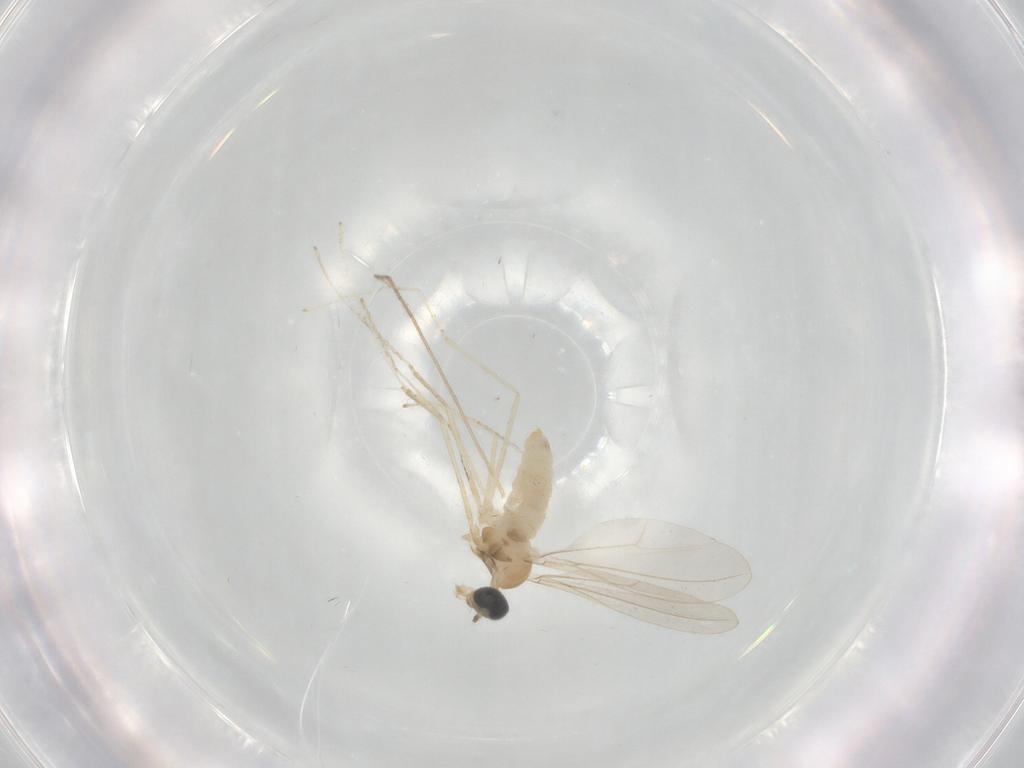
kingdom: Animalia
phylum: Arthropoda
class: Insecta
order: Diptera
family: Cecidomyiidae
